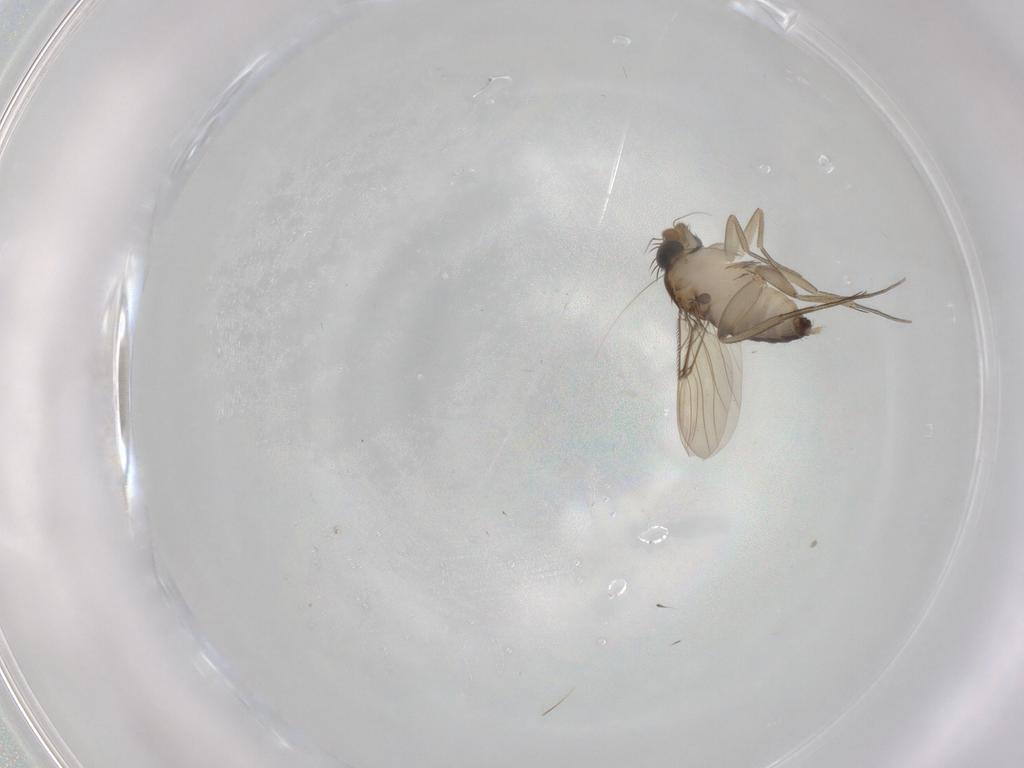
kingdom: Animalia
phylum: Arthropoda
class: Insecta
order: Diptera
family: Phoridae
